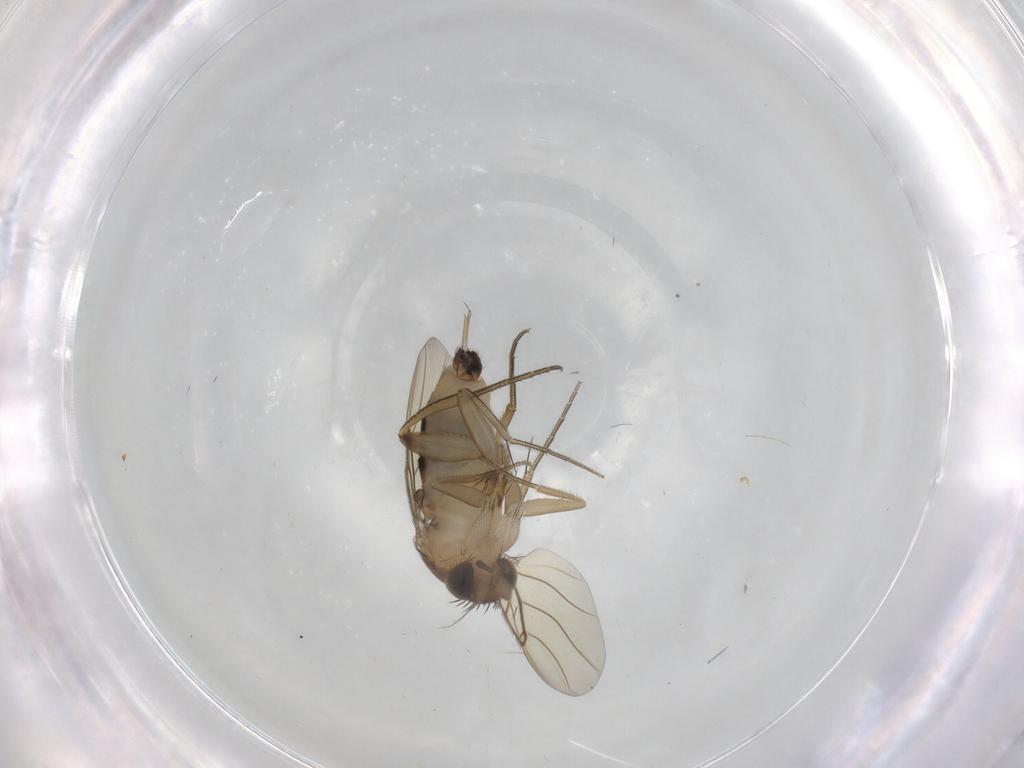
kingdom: Animalia
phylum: Arthropoda
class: Insecta
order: Diptera
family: Cecidomyiidae
